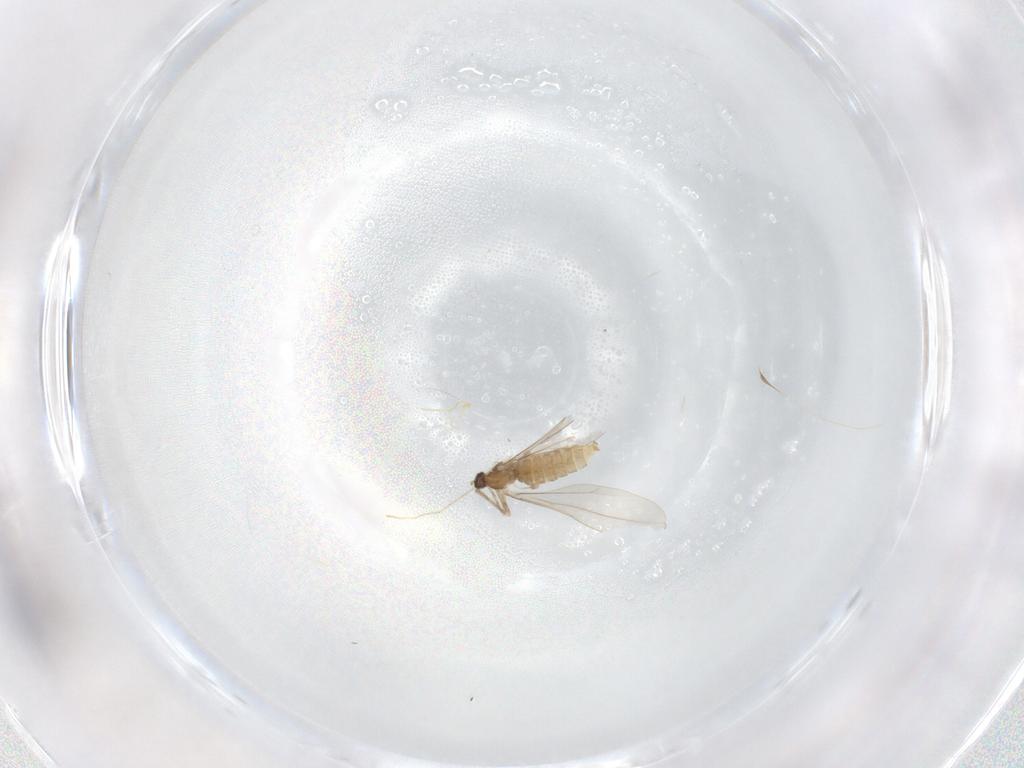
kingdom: Animalia
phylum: Arthropoda
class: Insecta
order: Diptera
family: Cecidomyiidae
